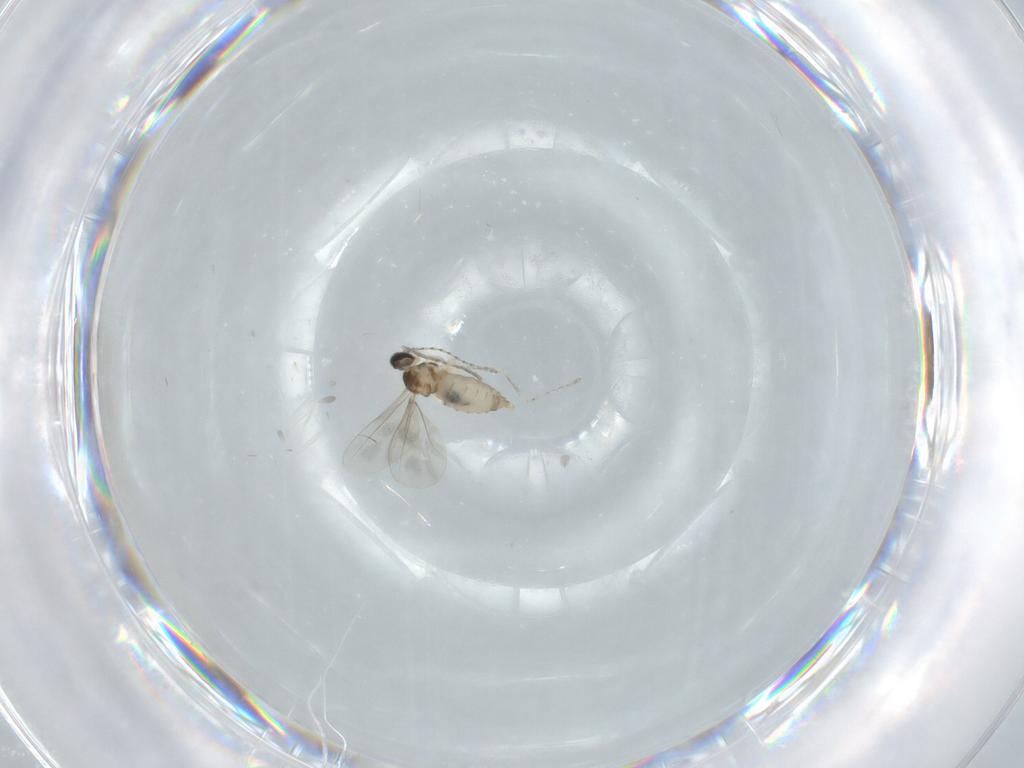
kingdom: Animalia
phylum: Arthropoda
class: Insecta
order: Diptera
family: Cecidomyiidae
